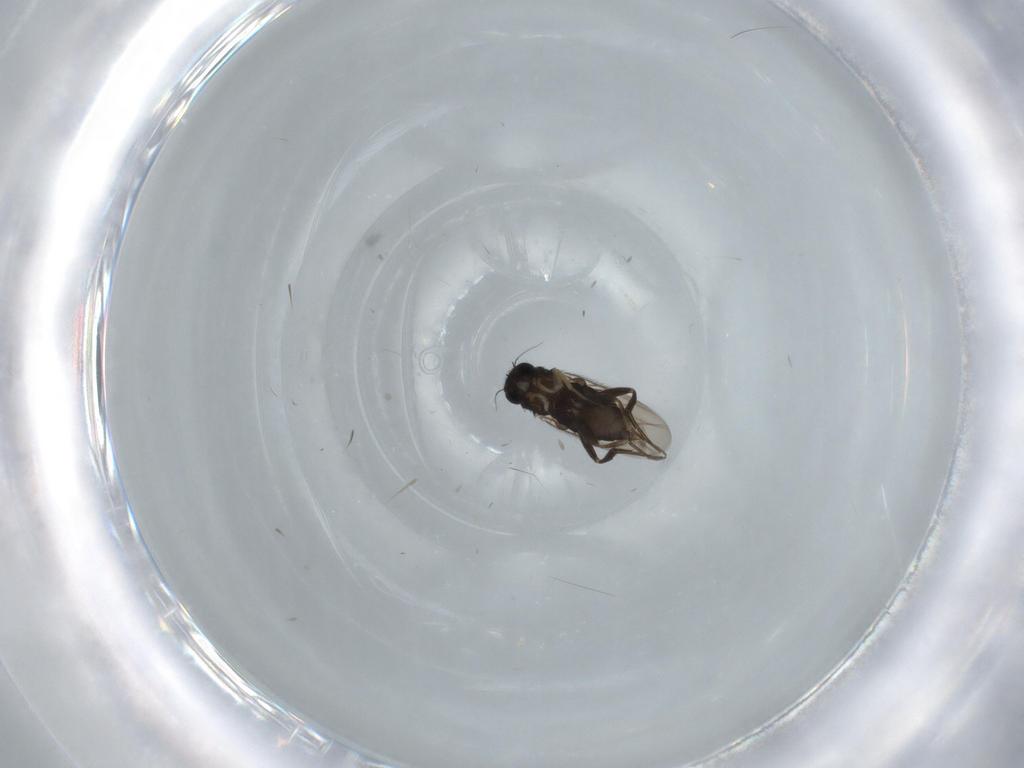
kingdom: Animalia
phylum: Arthropoda
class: Insecta
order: Diptera
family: Phoridae
